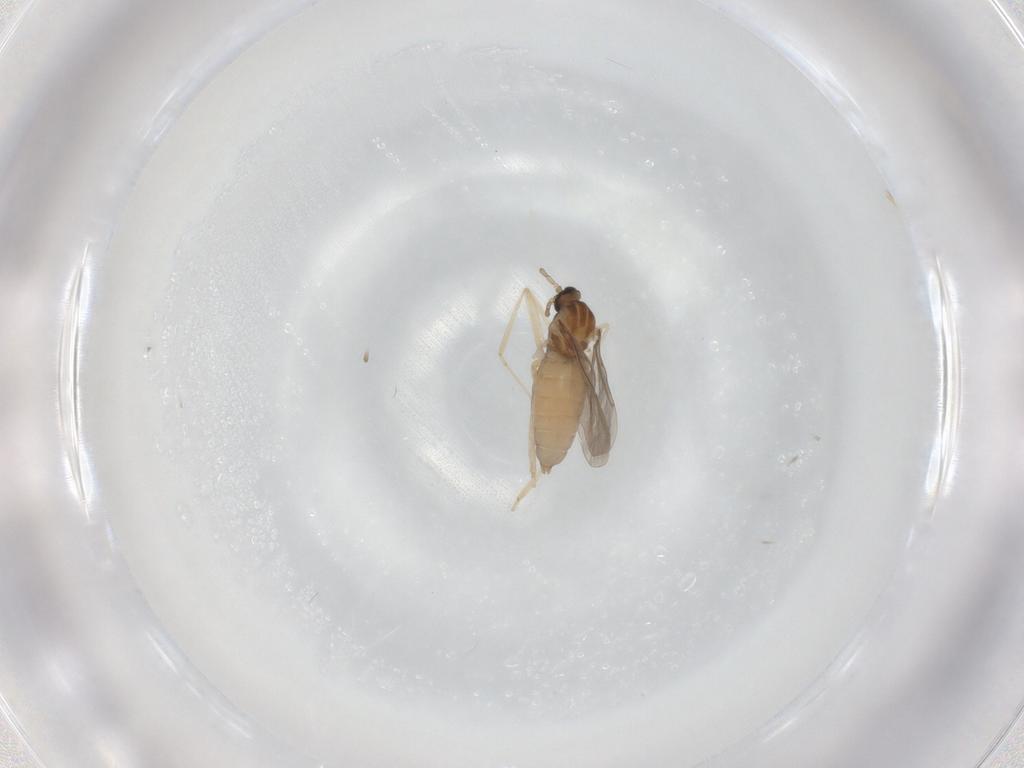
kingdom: Animalia
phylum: Arthropoda
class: Insecta
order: Diptera
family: Cecidomyiidae
